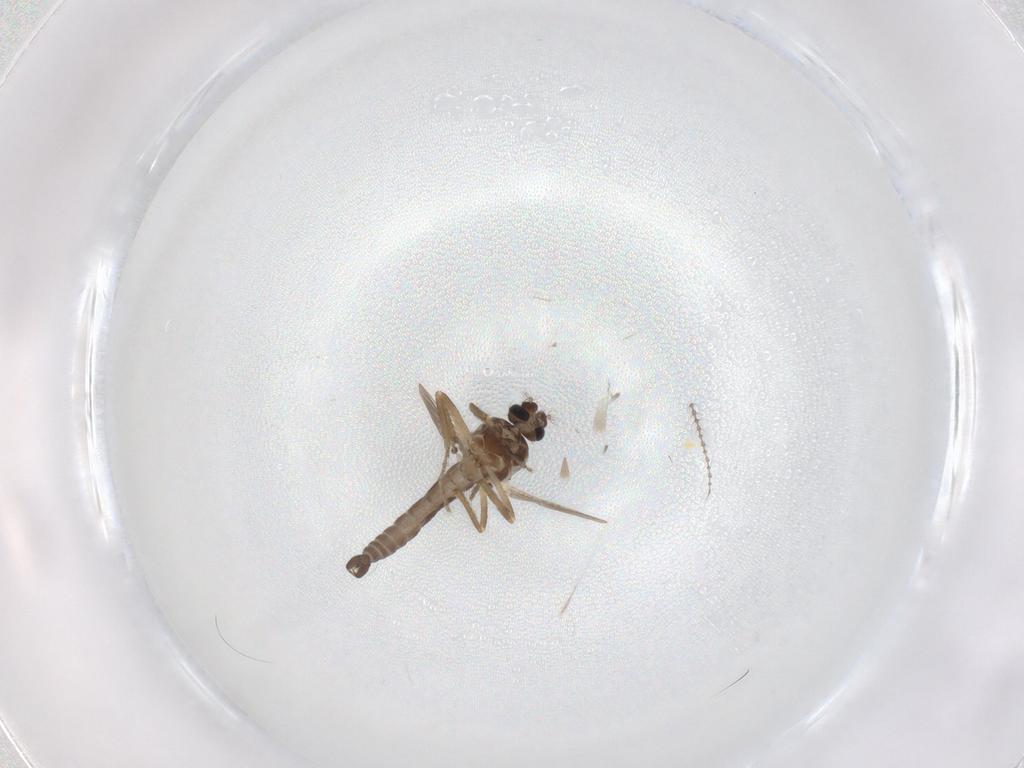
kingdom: Animalia
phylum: Arthropoda
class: Insecta
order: Diptera
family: Ceratopogonidae
